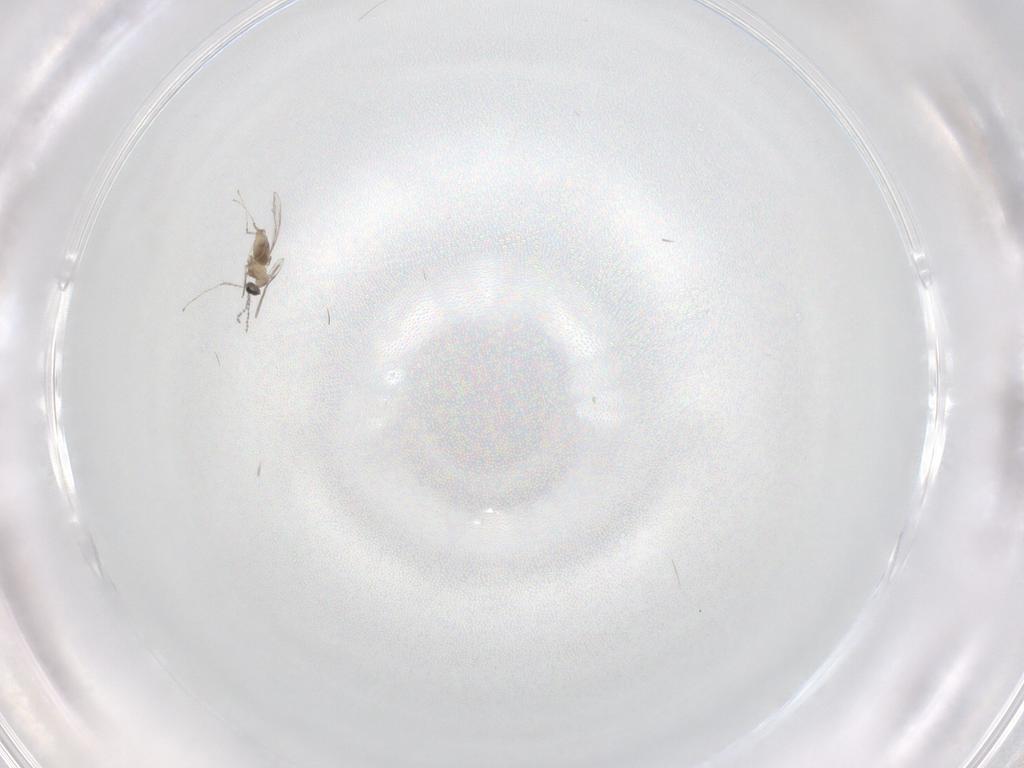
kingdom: Animalia
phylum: Arthropoda
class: Insecta
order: Diptera
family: Cecidomyiidae
